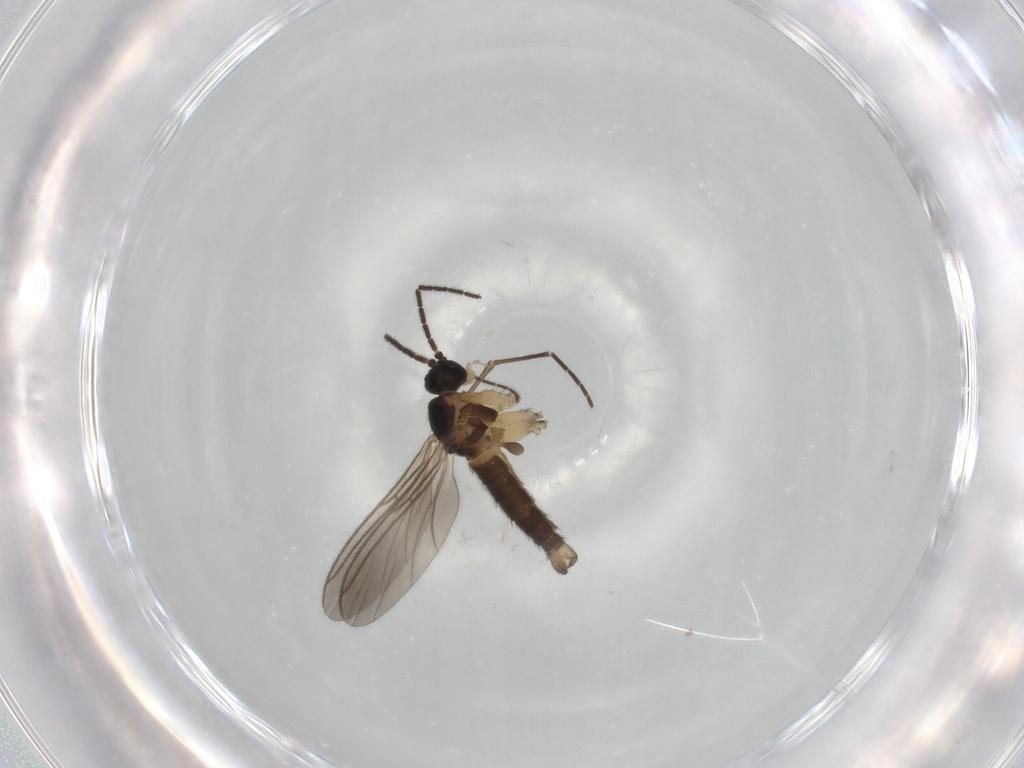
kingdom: Animalia
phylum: Arthropoda
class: Insecta
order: Diptera
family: Sciaridae
